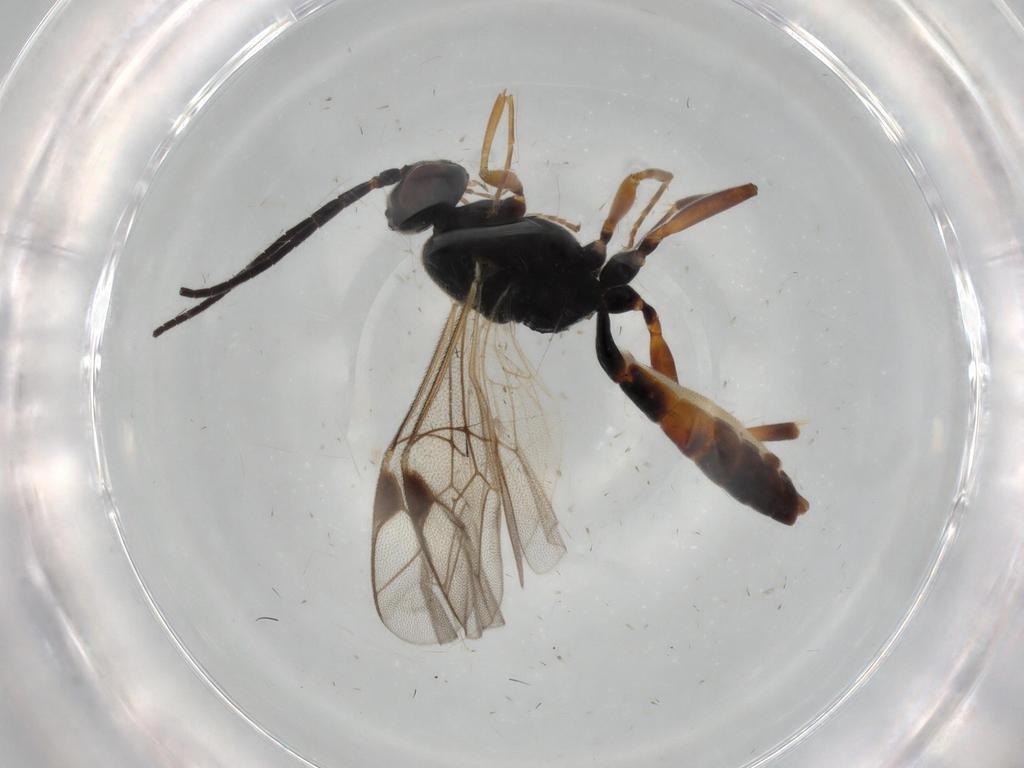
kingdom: Animalia
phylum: Arthropoda
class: Insecta
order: Hymenoptera
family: Ichneumonidae
